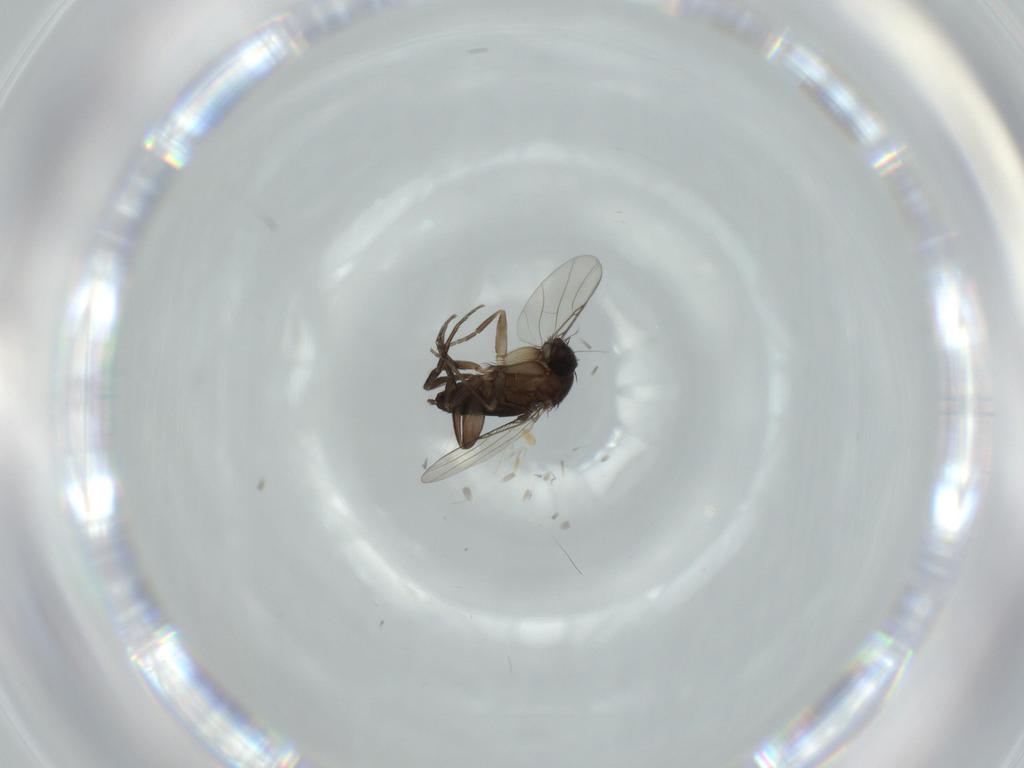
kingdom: Animalia
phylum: Arthropoda
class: Insecta
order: Diptera
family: Phoridae
